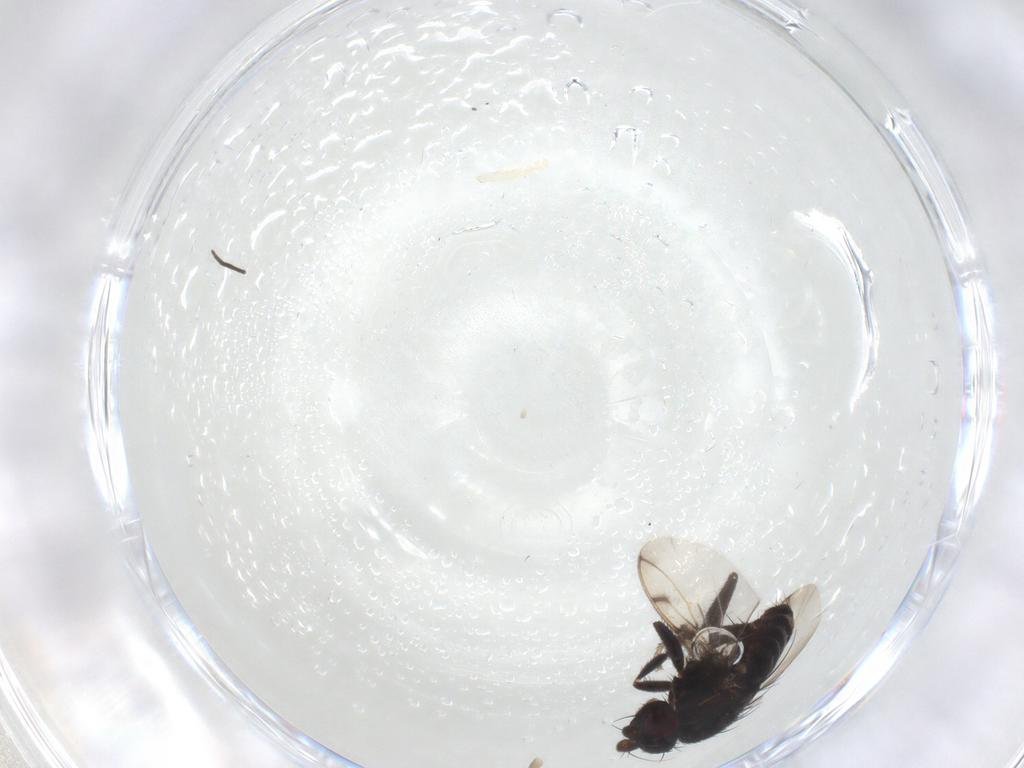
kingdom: Animalia
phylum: Arthropoda
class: Insecta
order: Diptera
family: Sphaeroceridae
